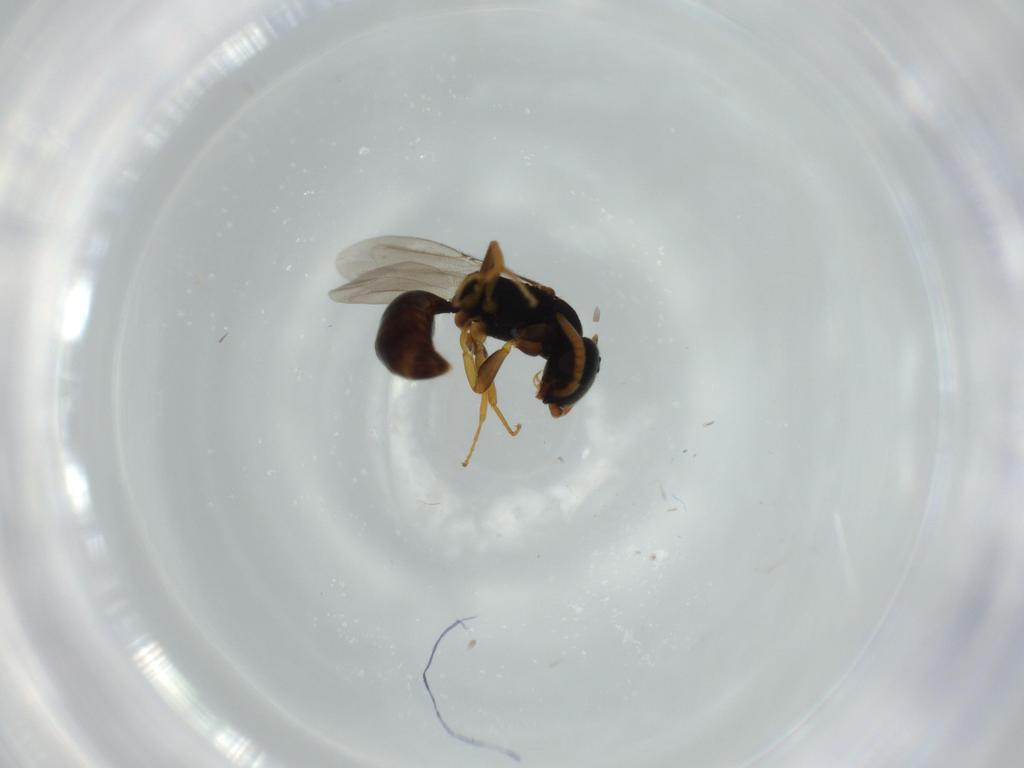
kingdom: Animalia
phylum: Arthropoda
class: Insecta
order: Hymenoptera
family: Bethylidae
